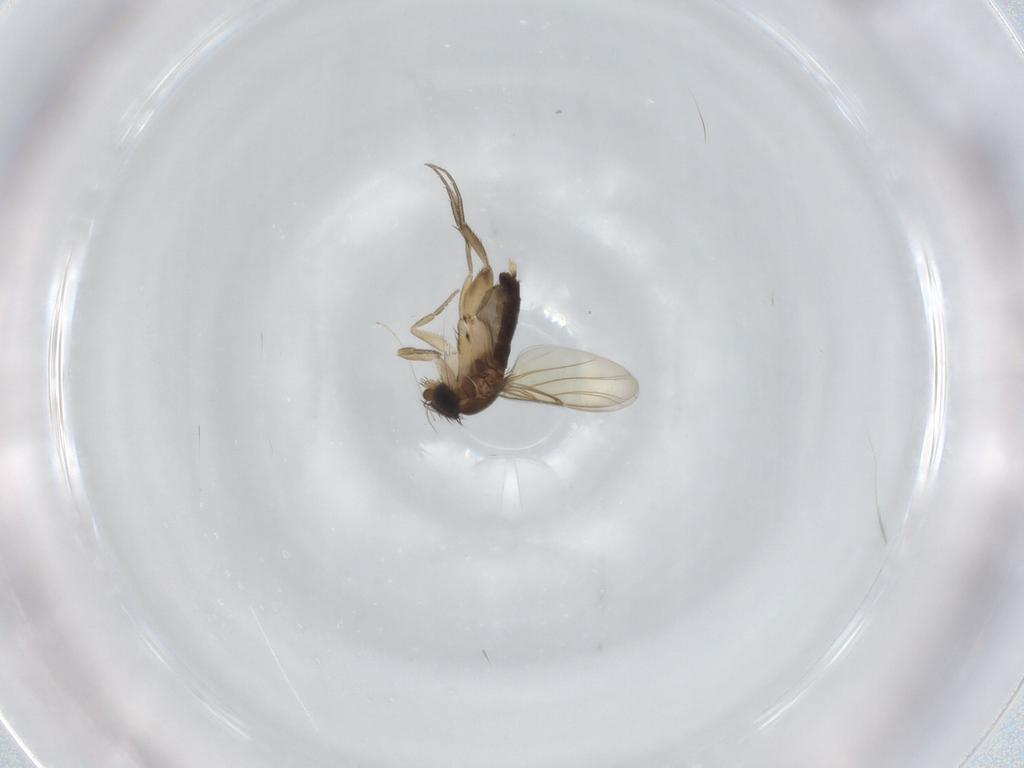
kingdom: Animalia
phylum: Arthropoda
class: Insecta
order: Diptera
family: Sciaridae
